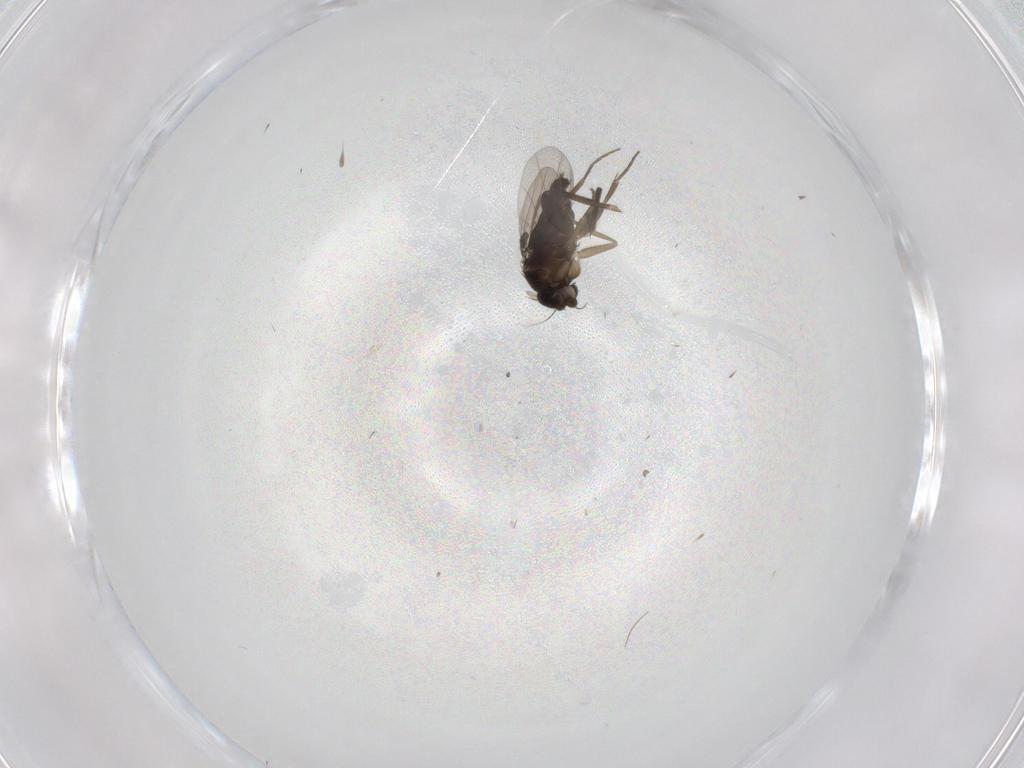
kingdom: Animalia
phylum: Arthropoda
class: Insecta
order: Diptera
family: Phoridae
